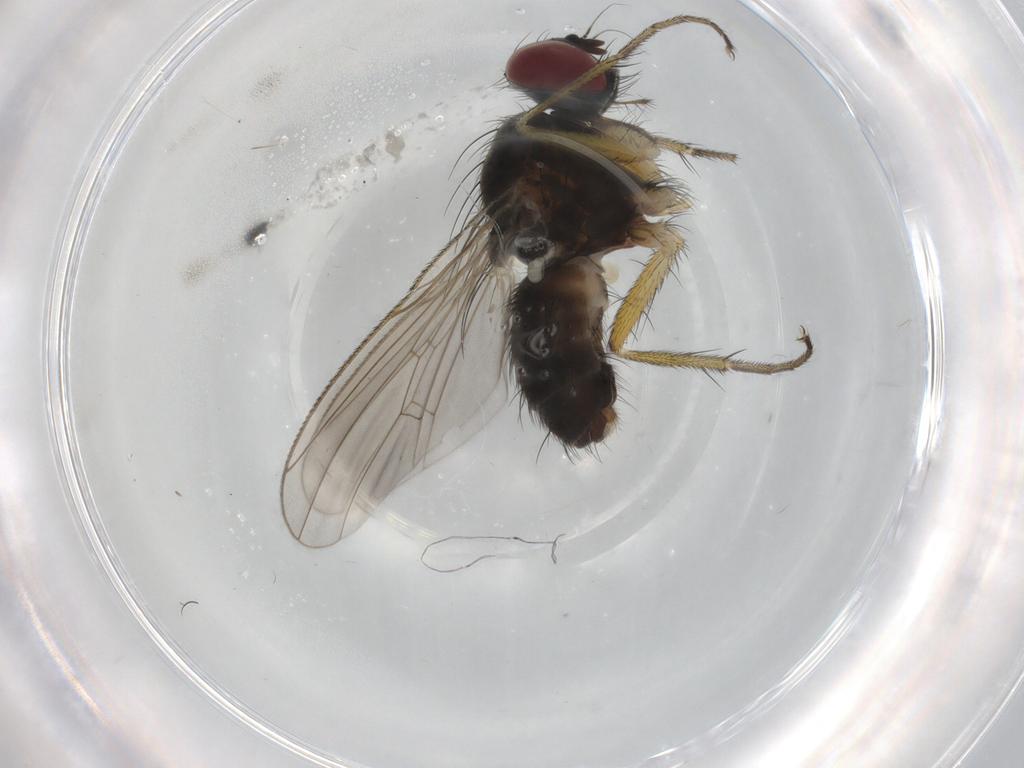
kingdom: Animalia
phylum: Arthropoda
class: Insecta
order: Diptera
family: Muscidae
